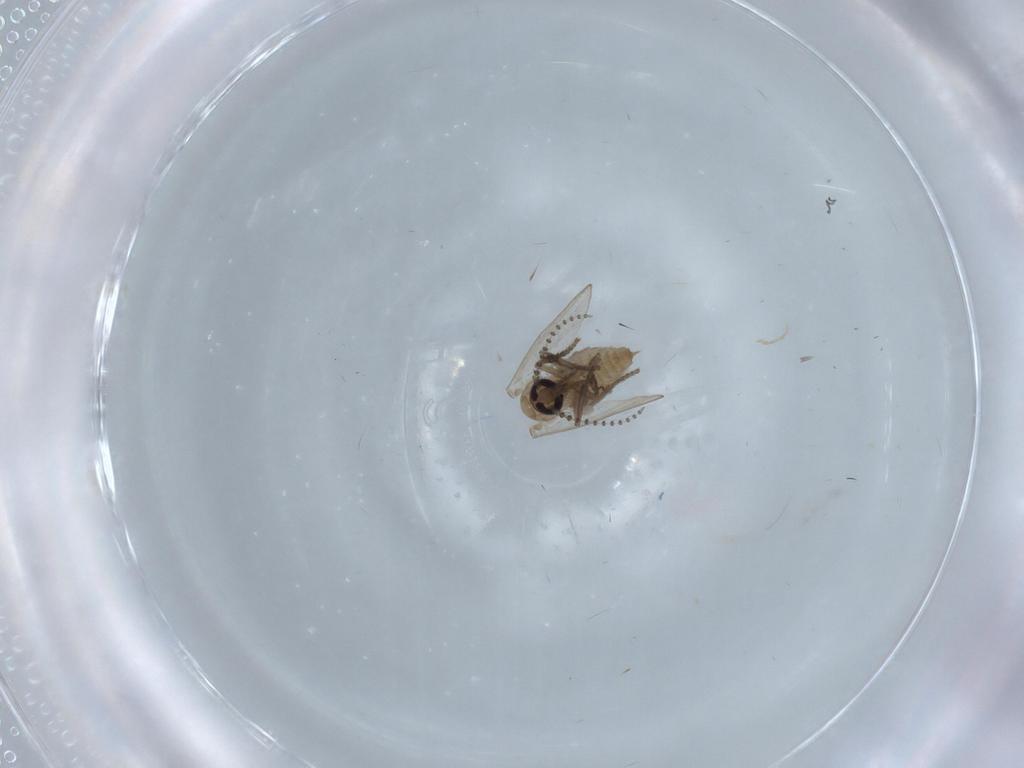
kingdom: Animalia
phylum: Arthropoda
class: Insecta
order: Diptera
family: Psychodidae
